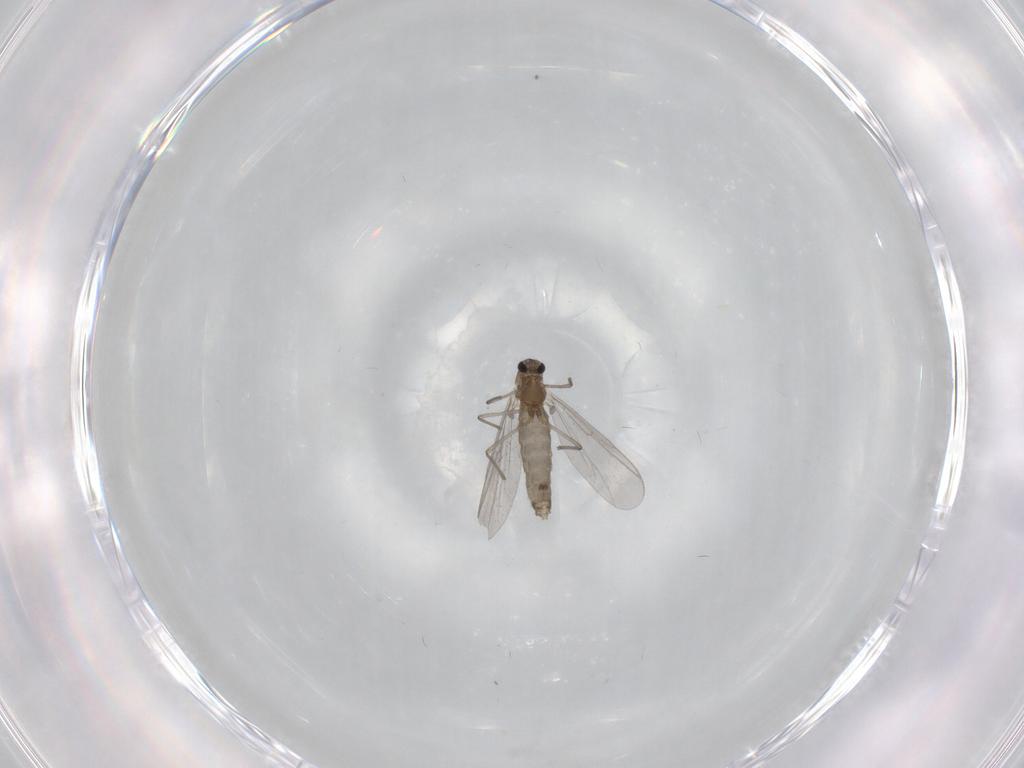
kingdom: Animalia
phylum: Arthropoda
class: Insecta
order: Diptera
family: Chironomidae
